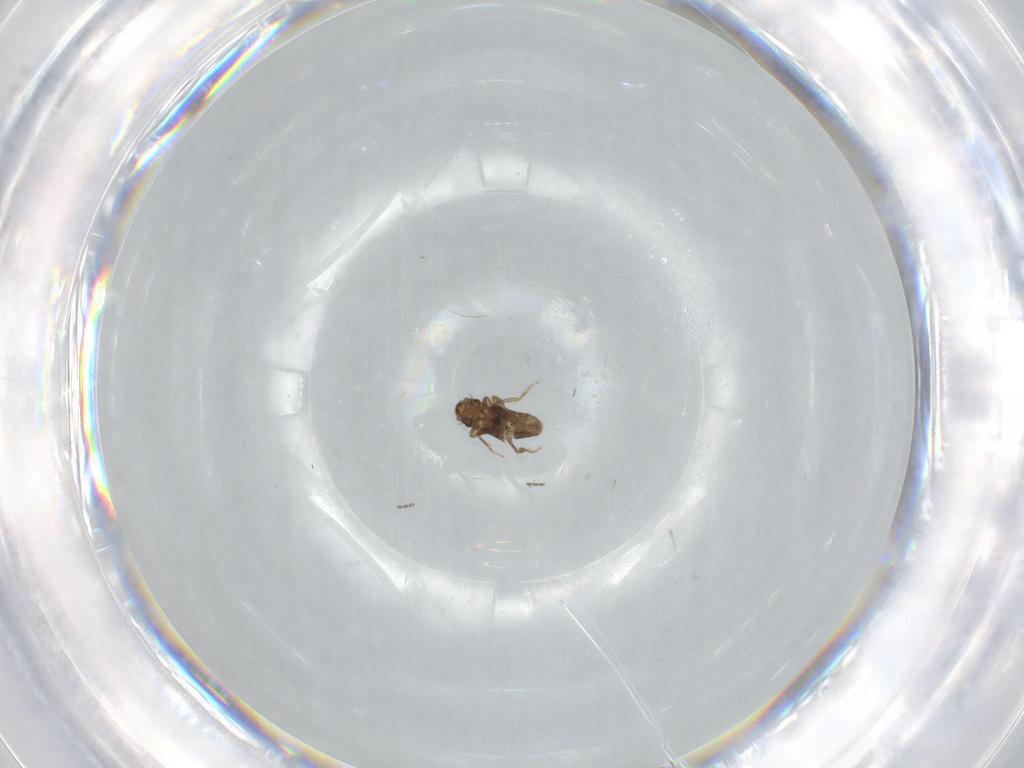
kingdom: Animalia
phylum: Arthropoda
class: Insecta
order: Diptera
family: Cecidomyiidae
